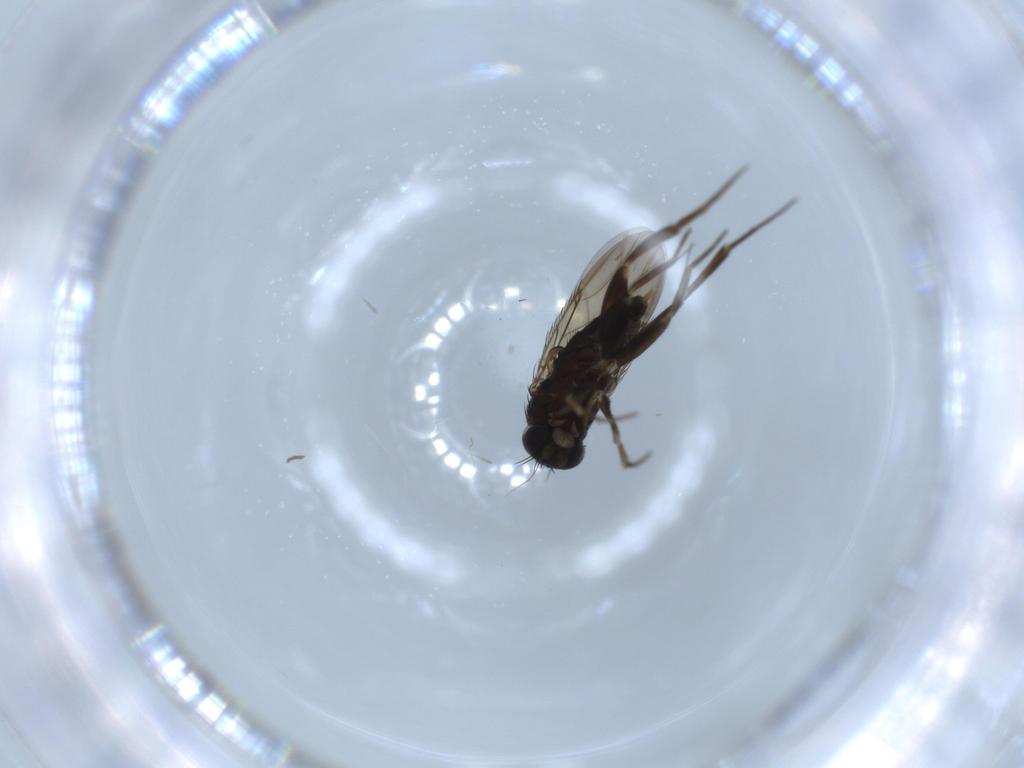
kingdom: Animalia
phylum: Arthropoda
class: Insecta
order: Diptera
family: Phoridae
